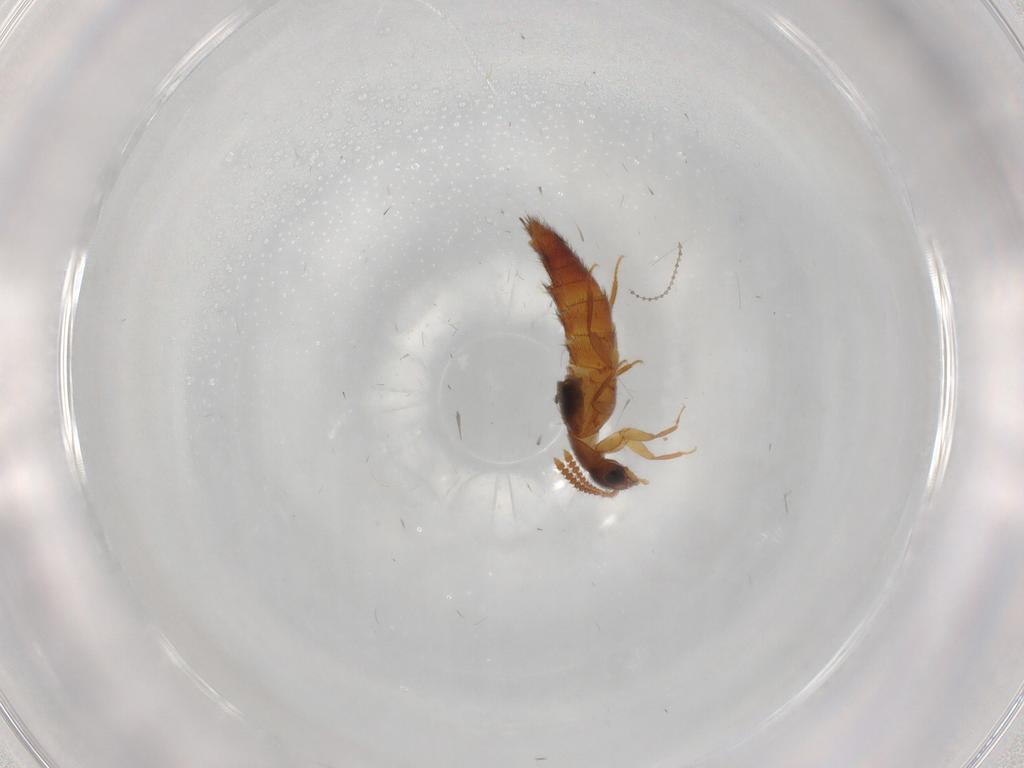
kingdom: Animalia
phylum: Arthropoda
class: Insecta
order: Coleoptera
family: Staphylinidae
